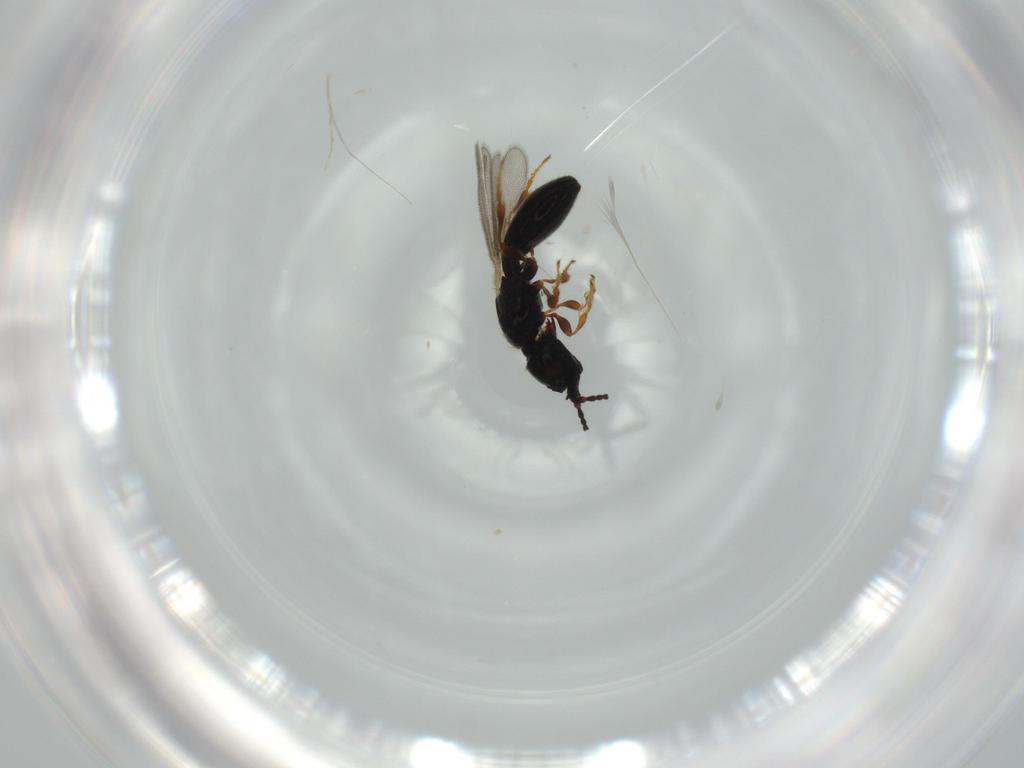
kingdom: Animalia
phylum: Arthropoda
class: Insecta
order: Hymenoptera
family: Diapriidae
